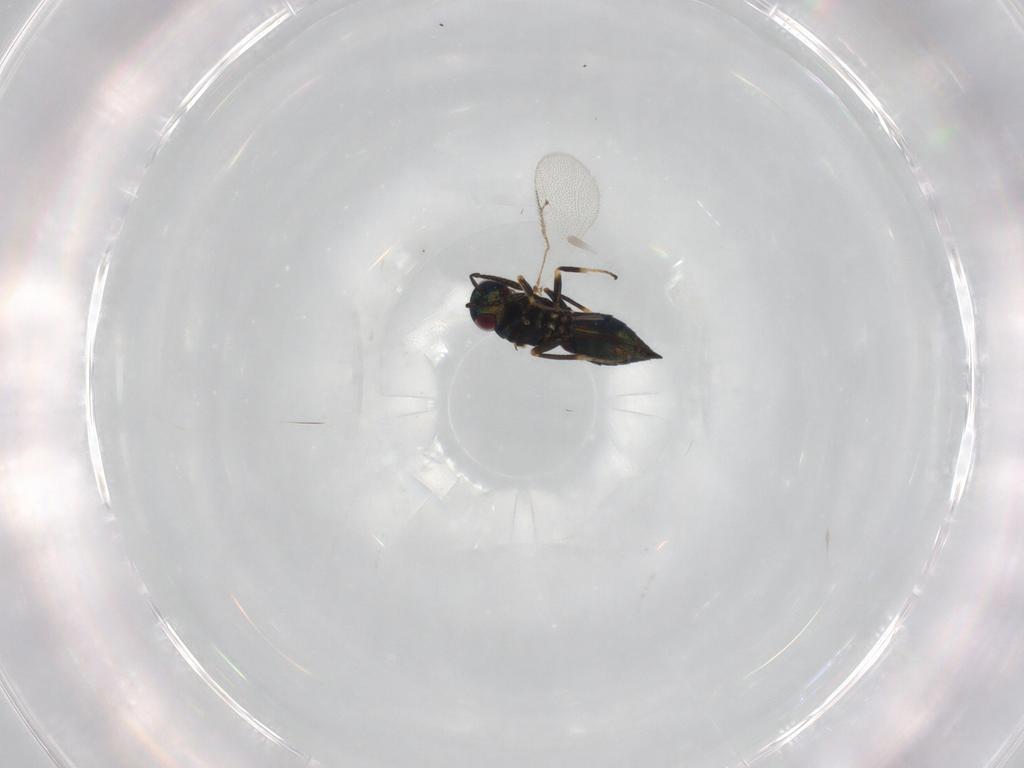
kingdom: Animalia
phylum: Arthropoda
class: Insecta
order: Hymenoptera
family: Pteromalidae
